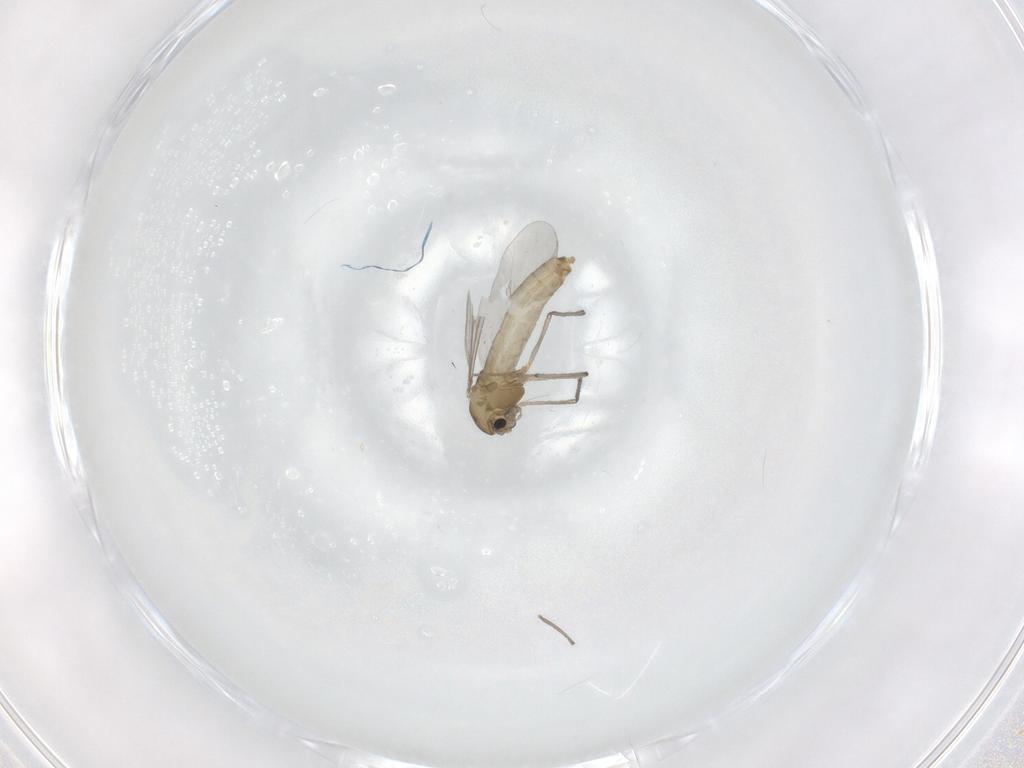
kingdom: Animalia
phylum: Arthropoda
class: Insecta
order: Diptera
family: Chironomidae
